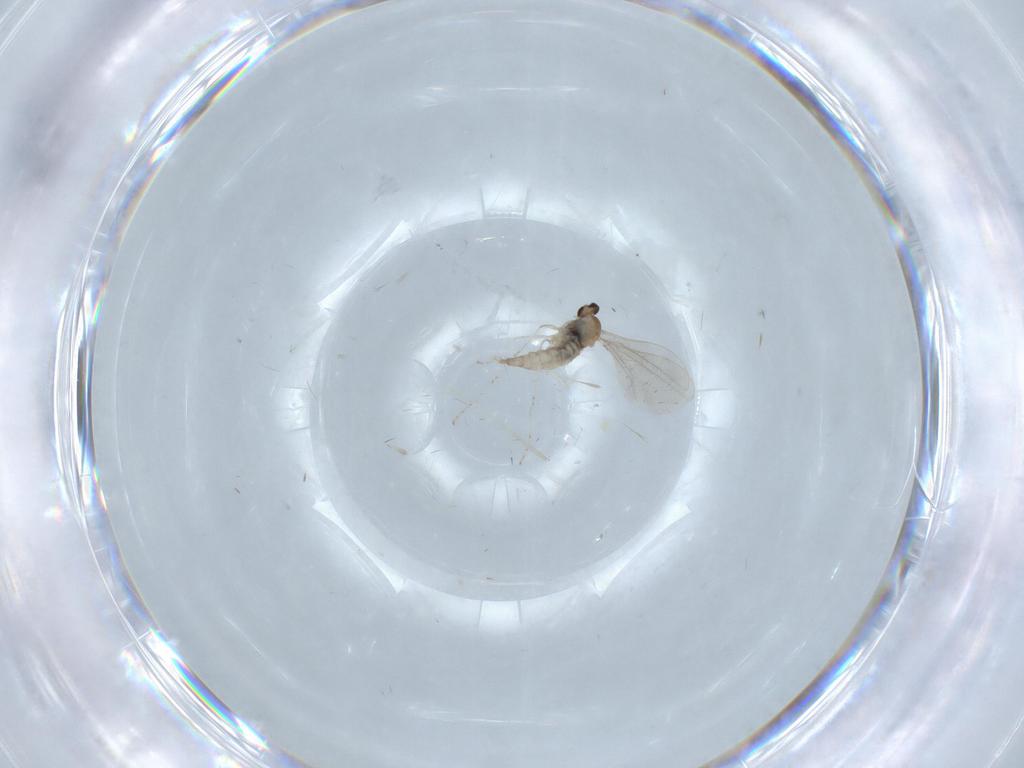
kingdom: Animalia
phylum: Arthropoda
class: Insecta
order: Diptera
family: Cecidomyiidae
